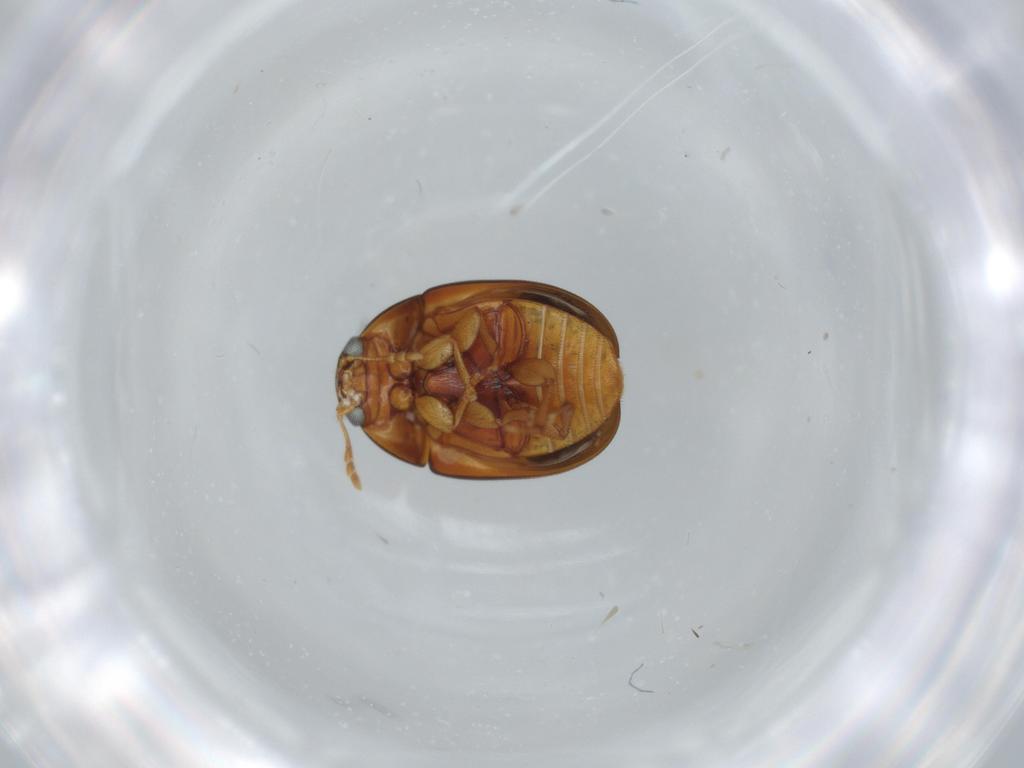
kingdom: Animalia
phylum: Arthropoda
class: Insecta
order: Coleoptera
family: Phalacridae
